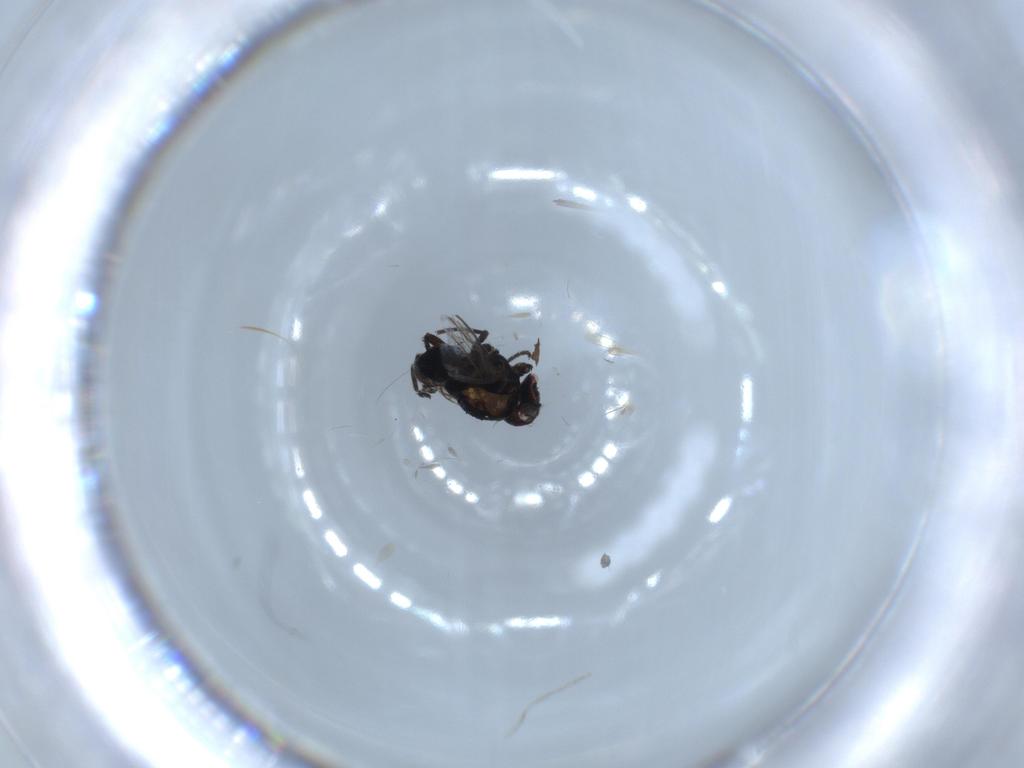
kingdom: Animalia
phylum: Arthropoda
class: Insecta
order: Diptera
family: Agromyzidae
